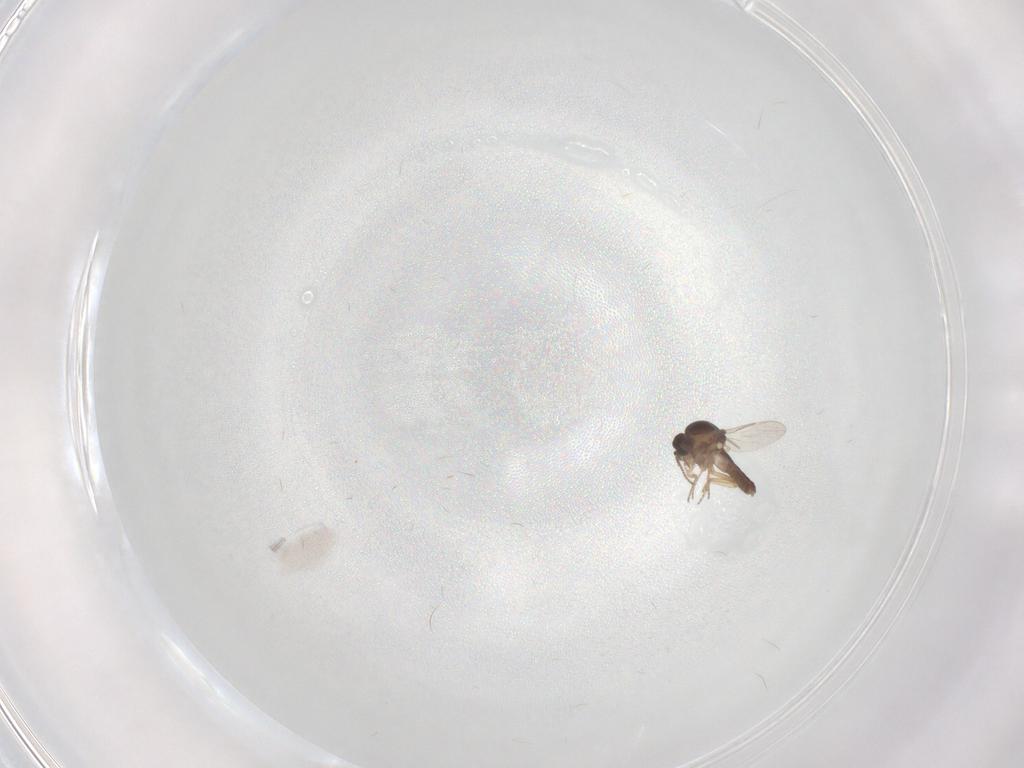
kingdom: Animalia
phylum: Arthropoda
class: Insecta
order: Diptera
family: Ceratopogonidae
